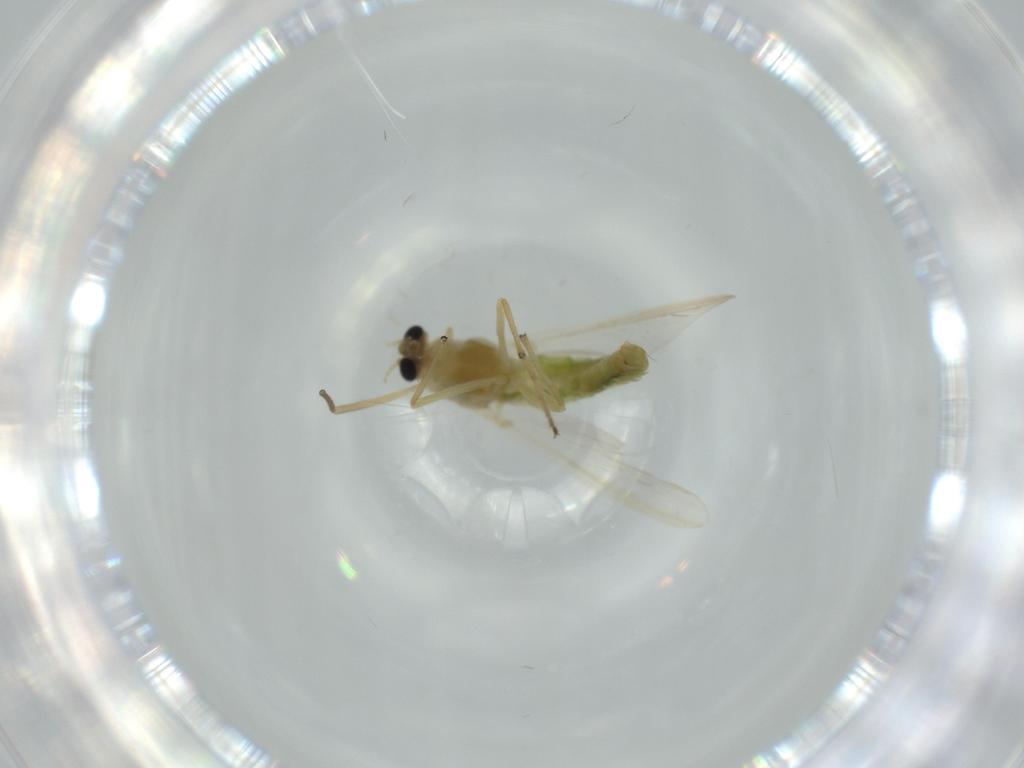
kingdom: Animalia
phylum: Arthropoda
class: Insecta
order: Diptera
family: Chironomidae
